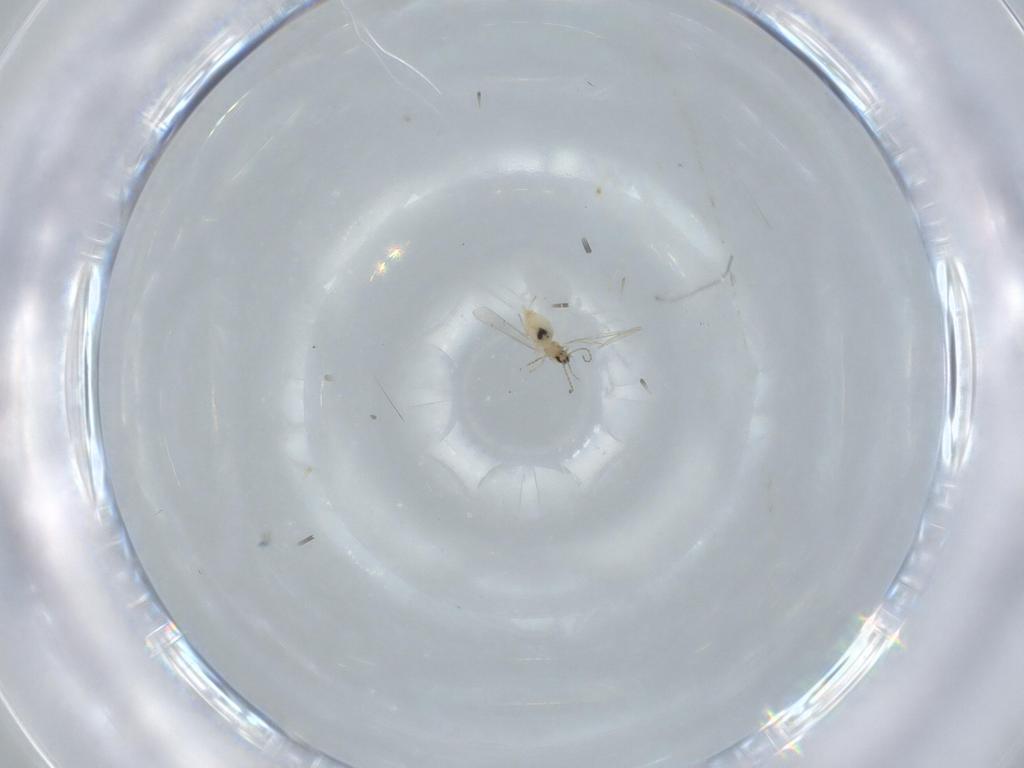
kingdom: Animalia
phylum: Arthropoda
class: Insecta
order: Diptera
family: Cecidomyiidae
